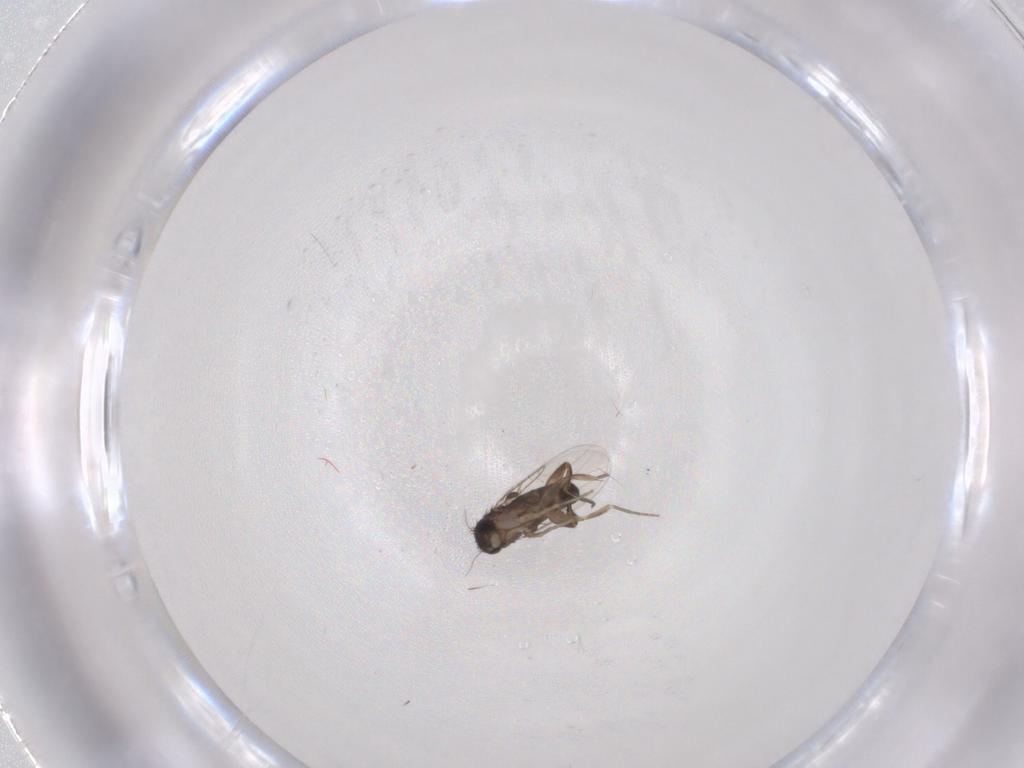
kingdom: Animalia
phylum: Arthropoda
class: Insecta
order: Diptera
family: Phoridae
